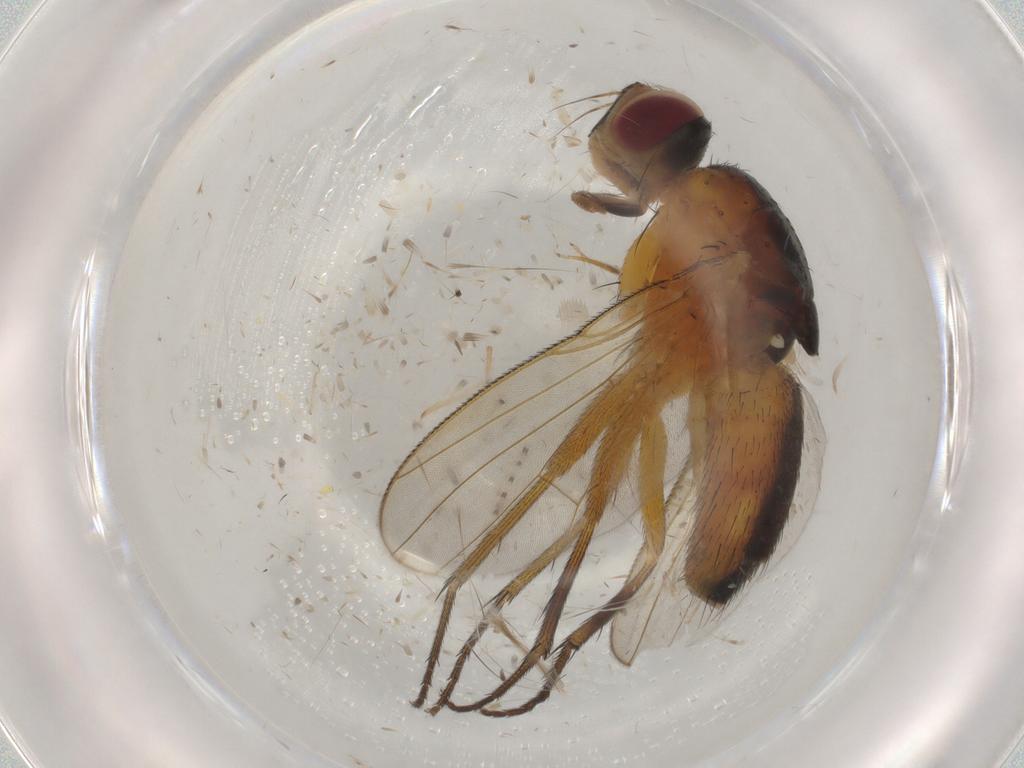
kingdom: Animalia
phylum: Arthropoda
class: Insecta
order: Diptera
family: Muscidae
